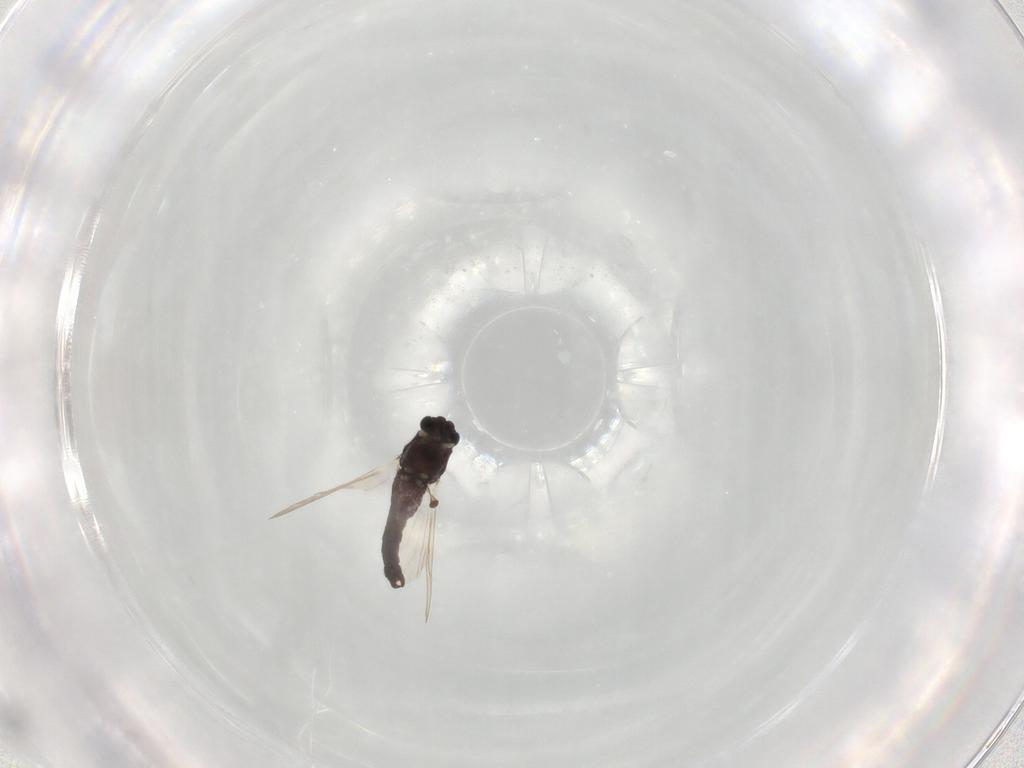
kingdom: Animalia
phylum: Arthropoda
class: Insecta
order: Diptera
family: Chironomidae
